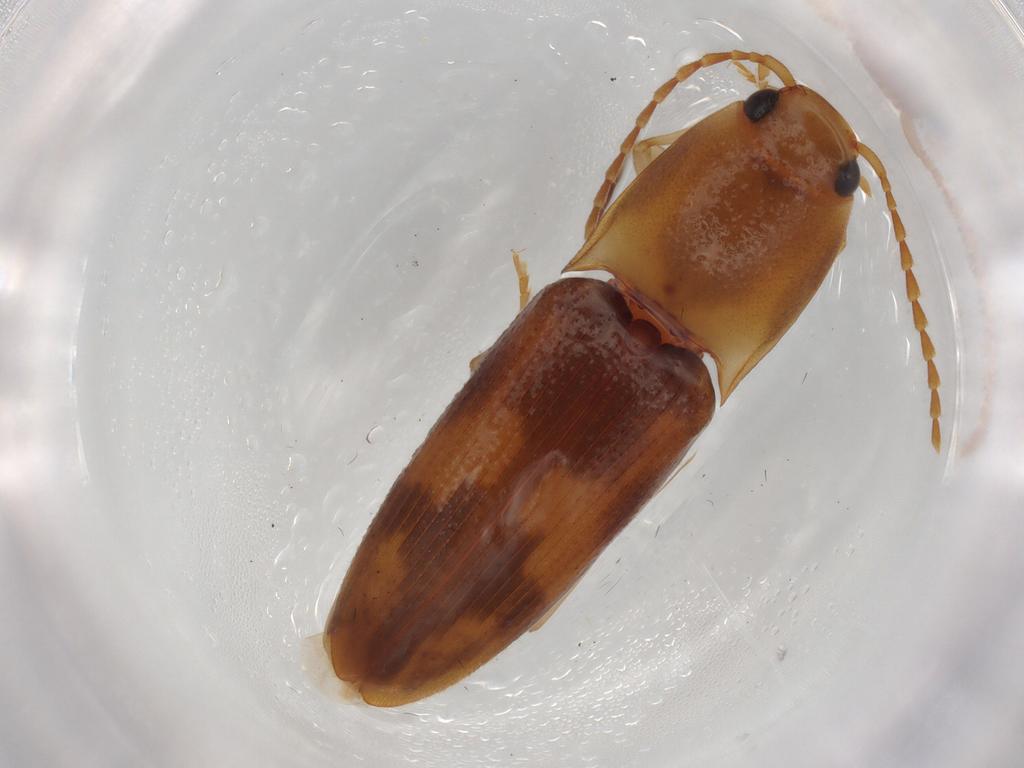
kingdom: Animalia
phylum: Arthropoda
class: Insecta
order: Coleoptera
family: Elateridae
